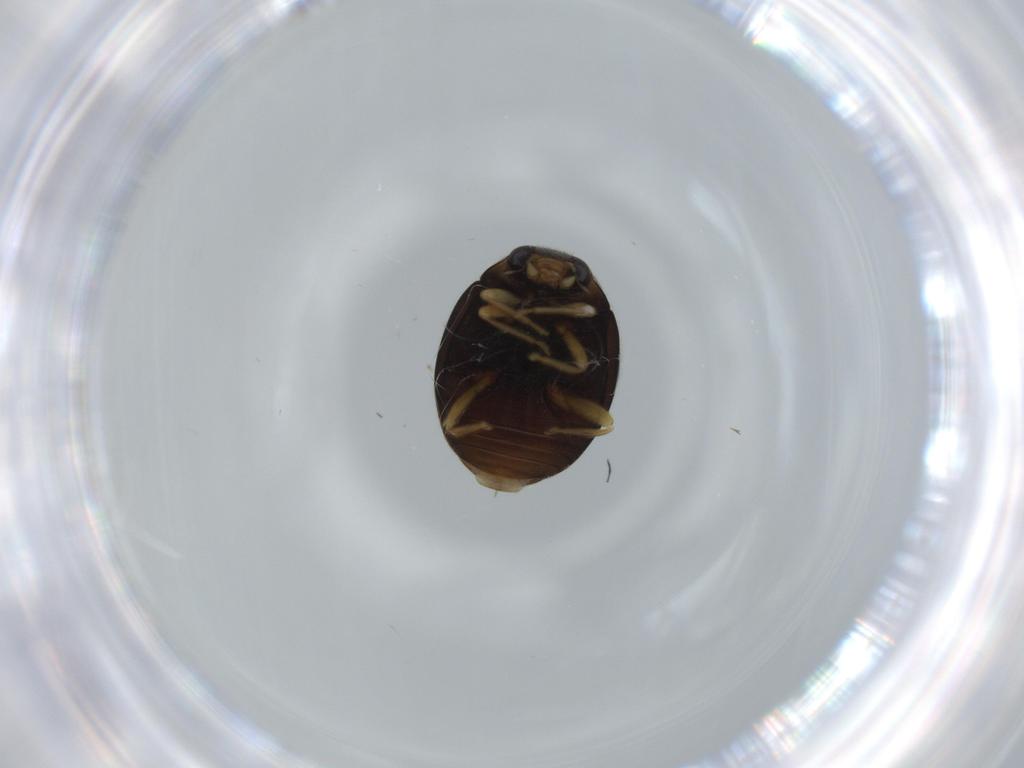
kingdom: Animalia
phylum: Arthropoda
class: Insecta
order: Coleoptera
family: Coccinellidae
